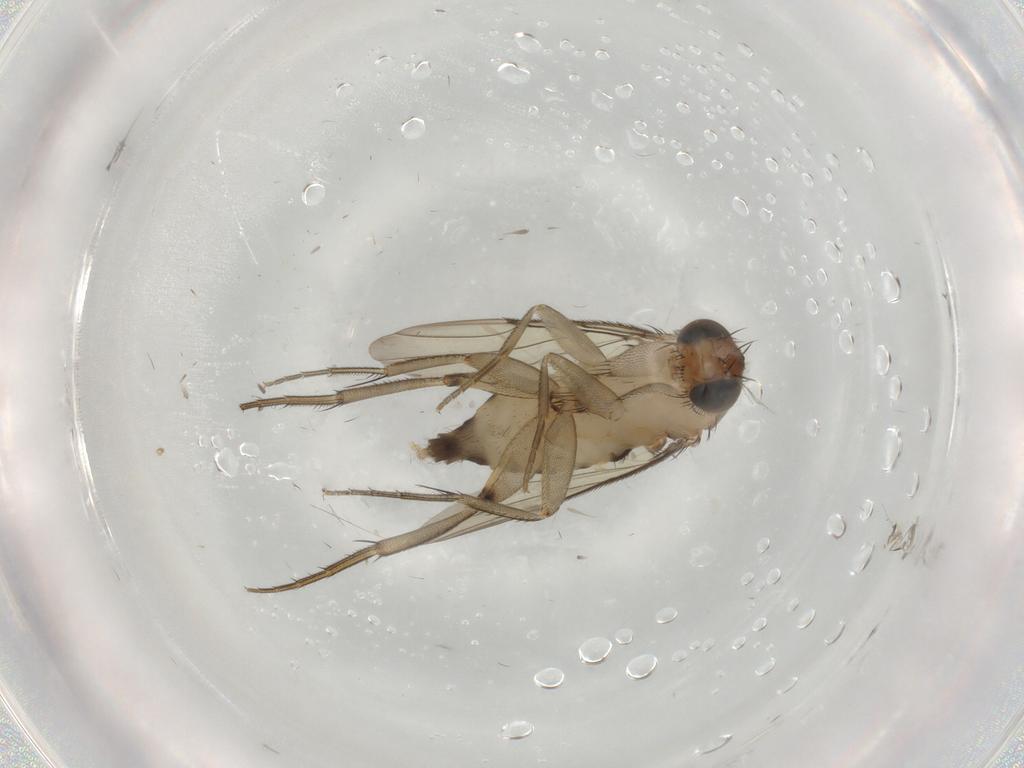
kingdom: Animalia
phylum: Arthropoda
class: Insecta
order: Diptera
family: Phoridae
